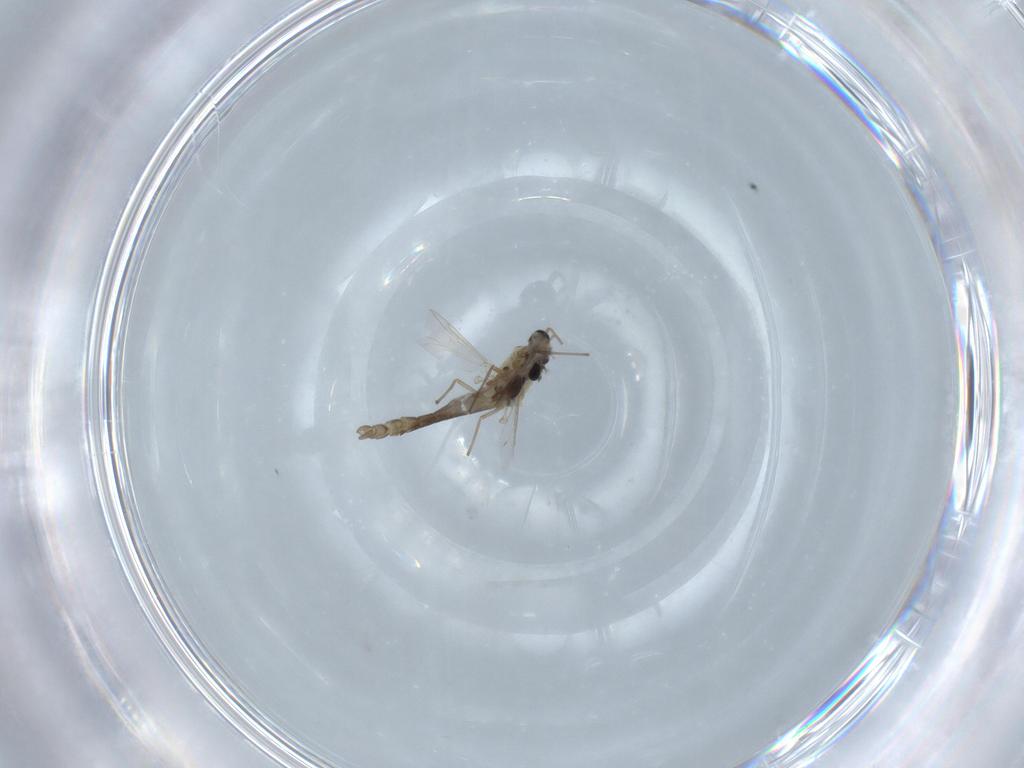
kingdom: Animalia
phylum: Arthropoda
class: Insecta
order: Diptera
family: Chironomidae
